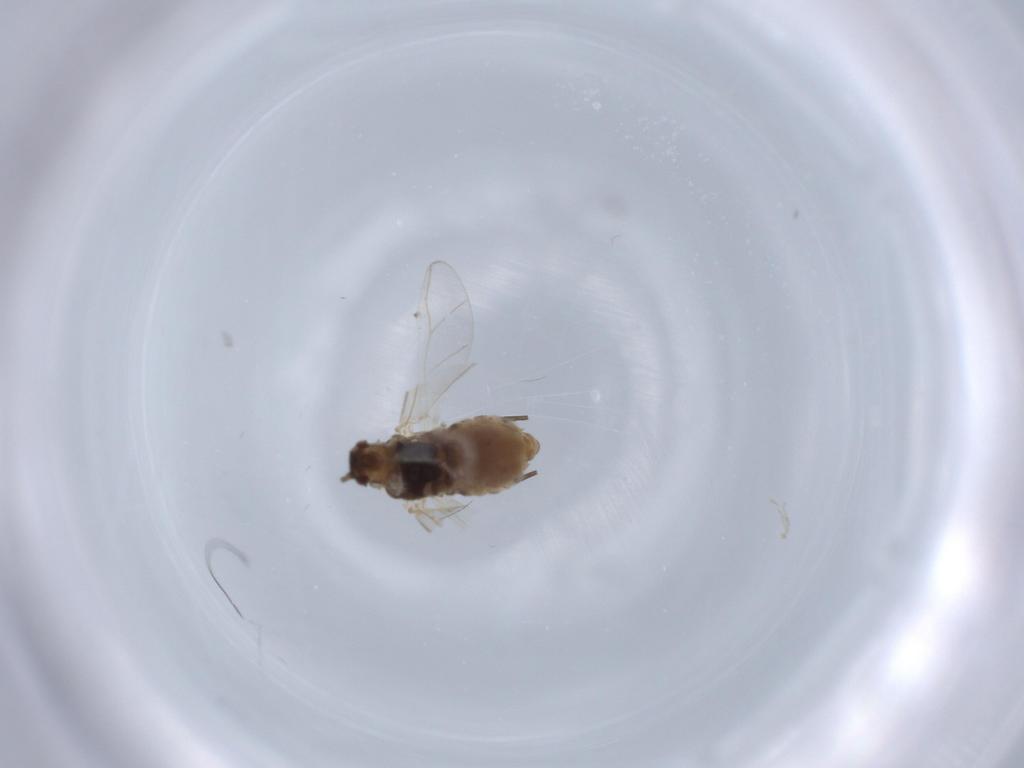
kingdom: Animalia
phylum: Arthropoda
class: Insecta
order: Hemiptera
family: Aphididae
